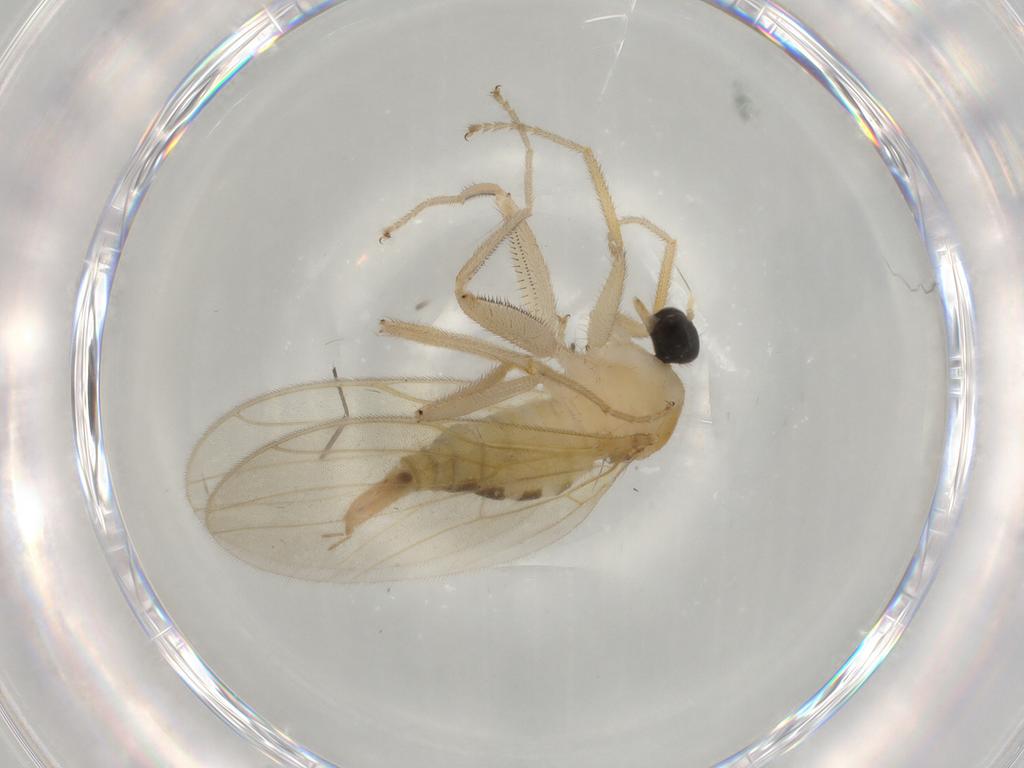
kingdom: Animalia
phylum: Arthropoda
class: Insecta
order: Diptera
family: Hybotidae
